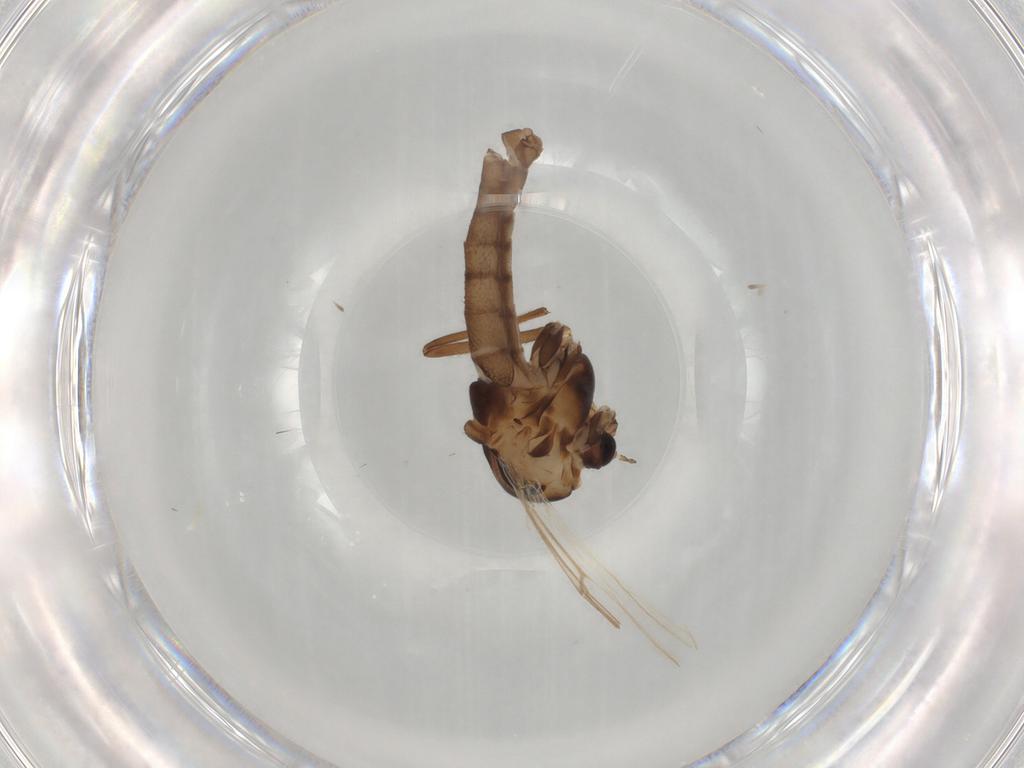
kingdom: Animalia
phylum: Arthropoda
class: Insecta
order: Diptera
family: Chironomidae
